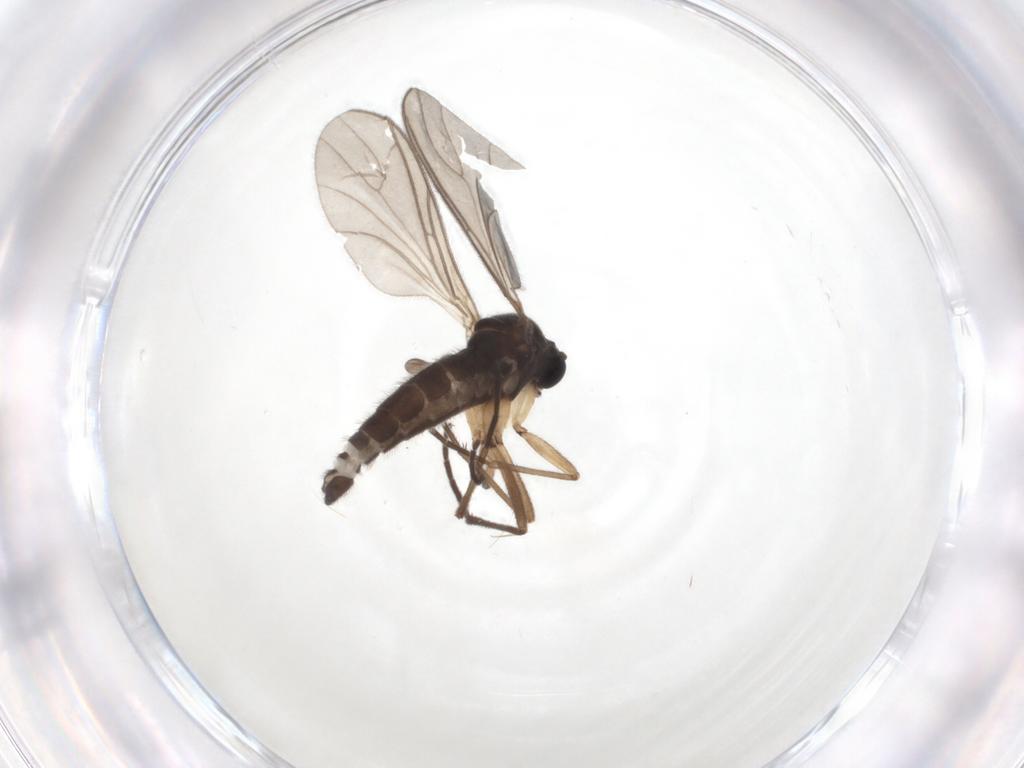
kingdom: Animalia
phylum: Arthropoda
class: Insecta
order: Diptera
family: Sciaridae
